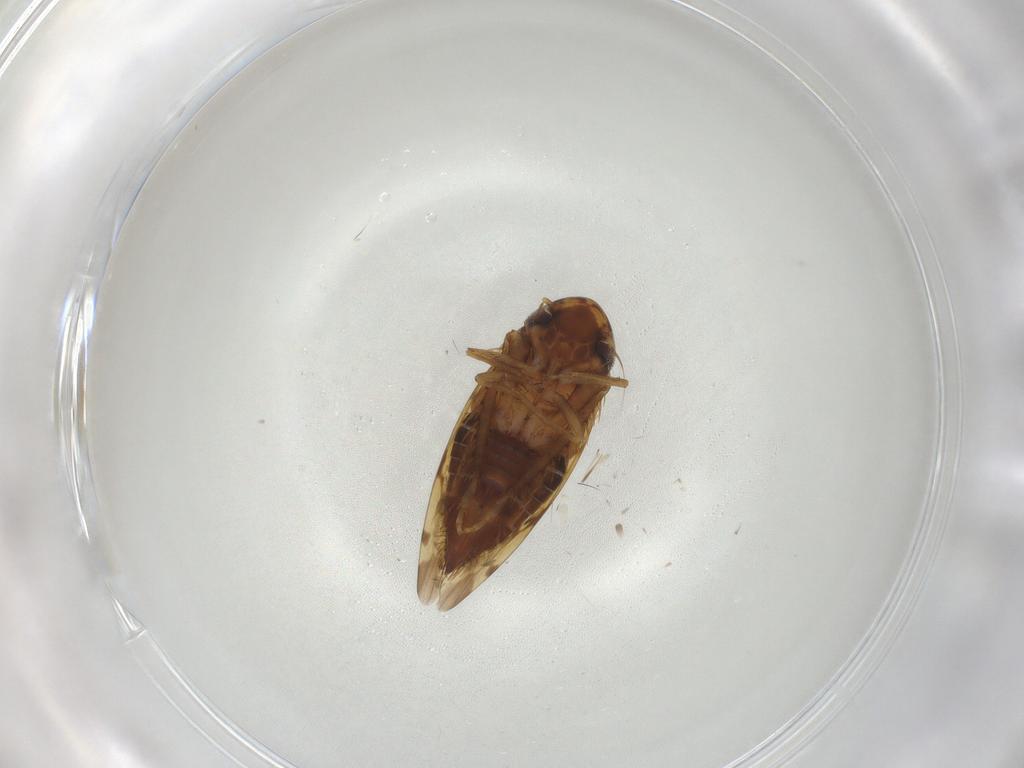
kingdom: Animalia
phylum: Arthropoda
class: Insecta
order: Hemiptera
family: Cicadellidae
